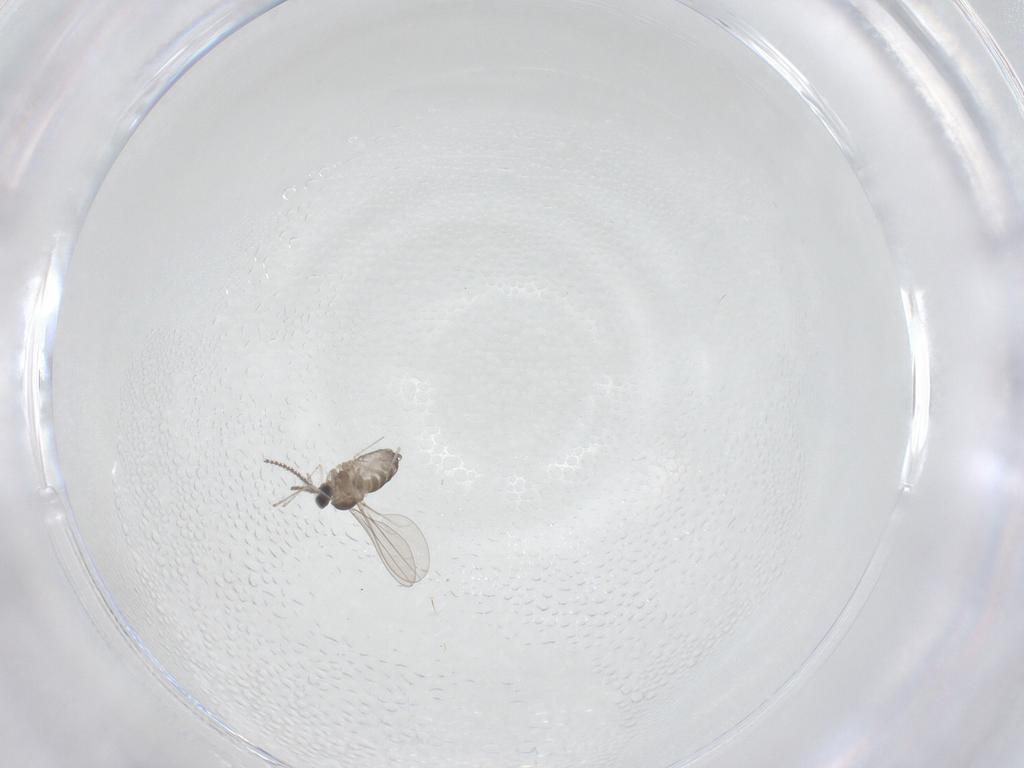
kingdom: Animalia
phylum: Arthropoda
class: Insecta
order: Diptera
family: Cecidomyiidae
